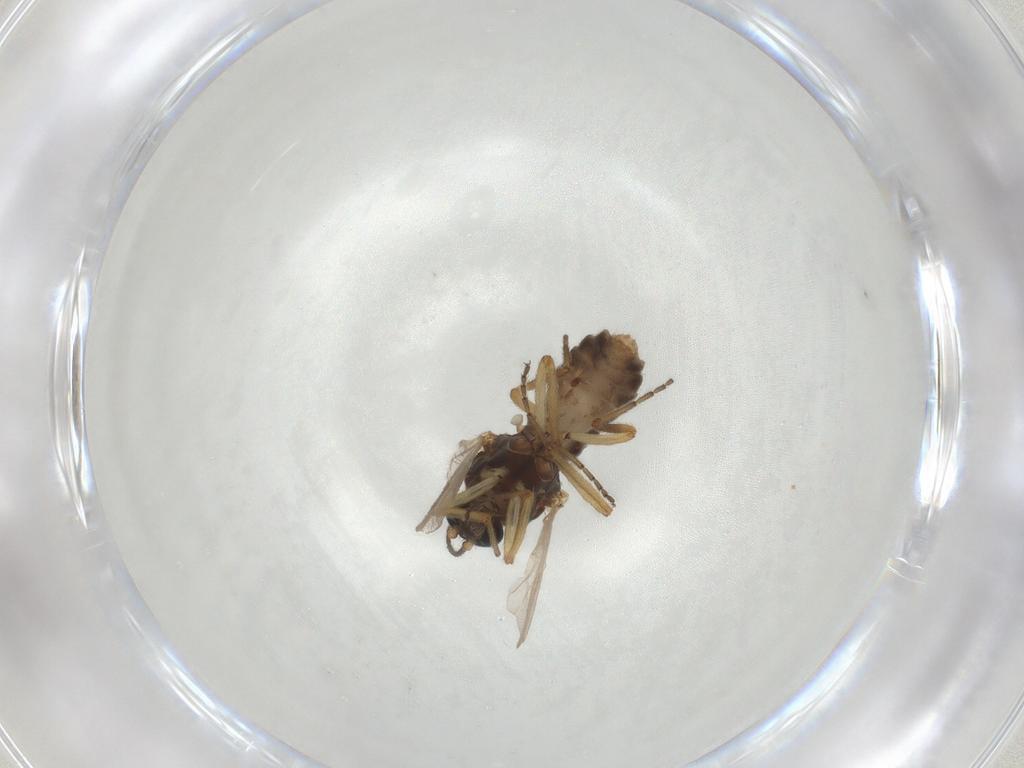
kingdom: Animalia
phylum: Arthropoda
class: Insecta
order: Diptera
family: Ceratopogonidae
